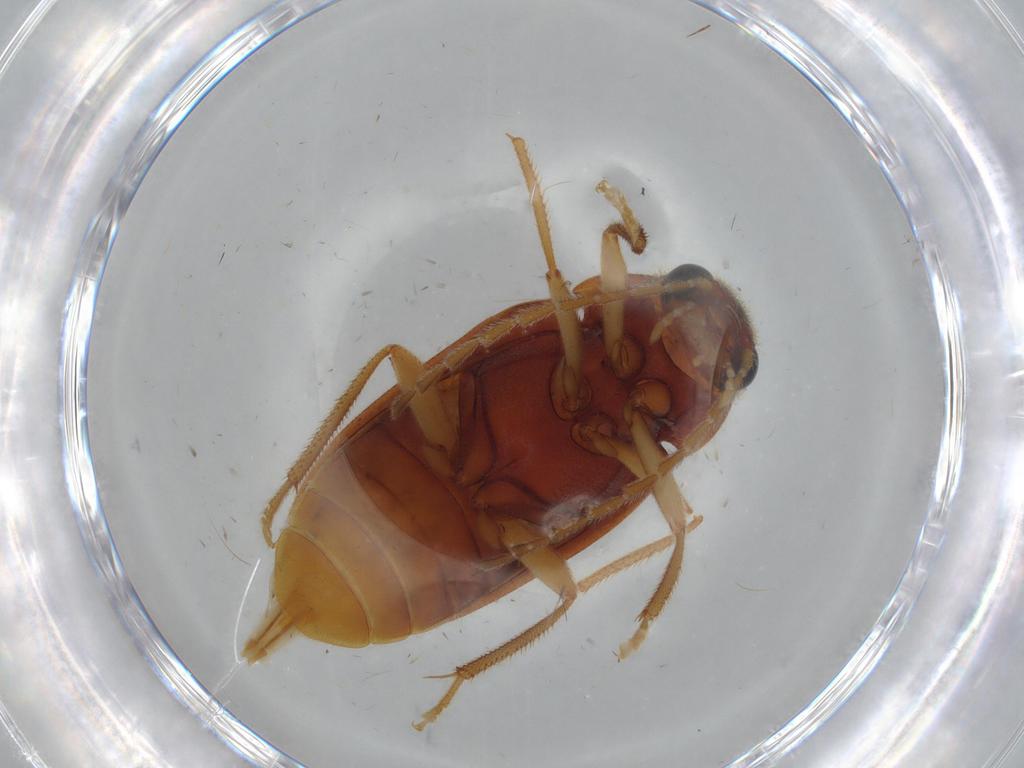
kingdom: Animalia
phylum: Arthropoda
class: Insecta
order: Coleoptera
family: Ptilodactylidae
